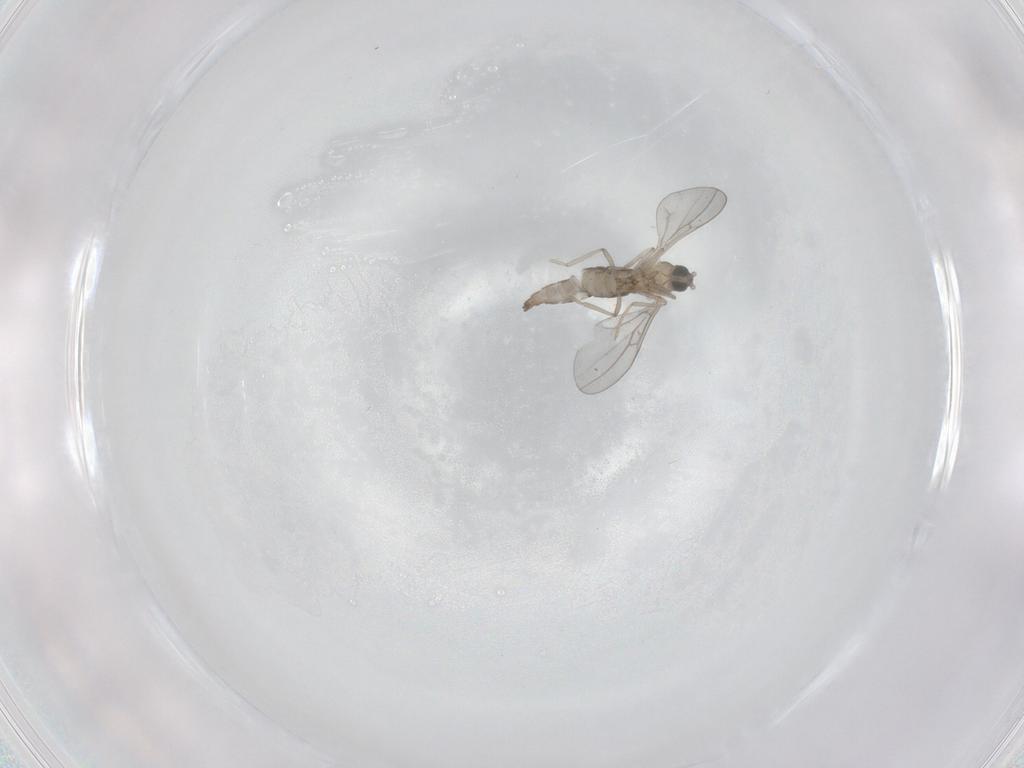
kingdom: Animalia
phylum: Arthropoda
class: Insecta
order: Diptera
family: Cecidomyiidae
